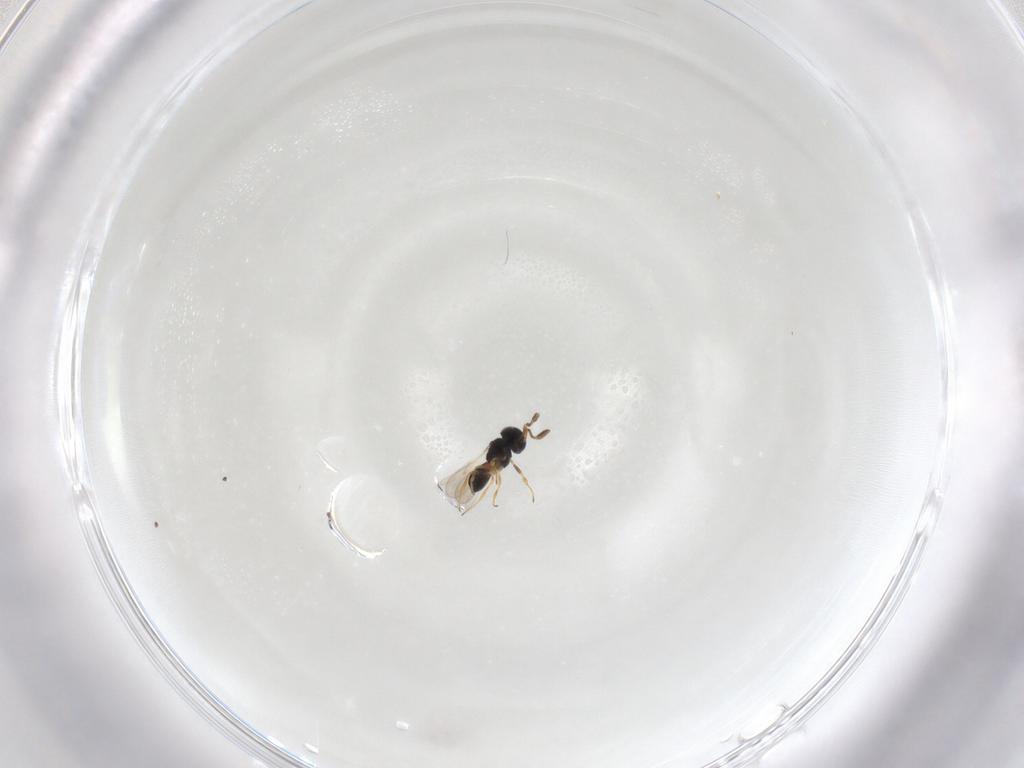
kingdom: Animalia
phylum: Arthropoda
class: Insecta
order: Hymenoptera
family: Scelionidae
